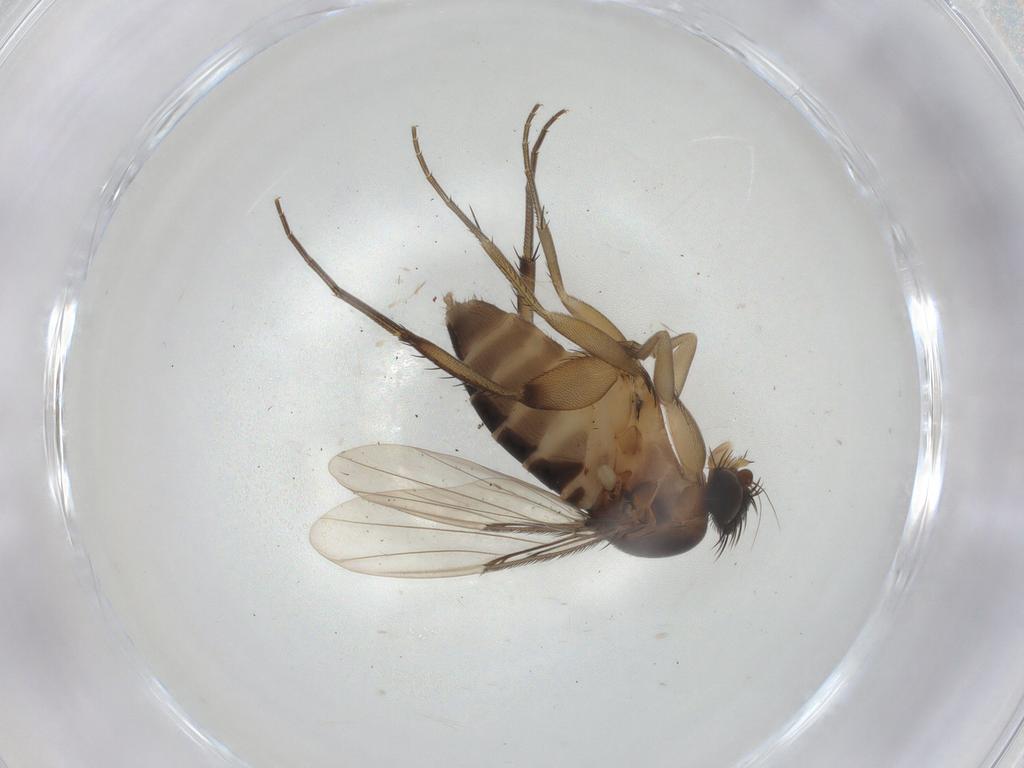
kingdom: Animalia
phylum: Arthropoda
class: Insecta
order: Diptera
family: Phoridae
